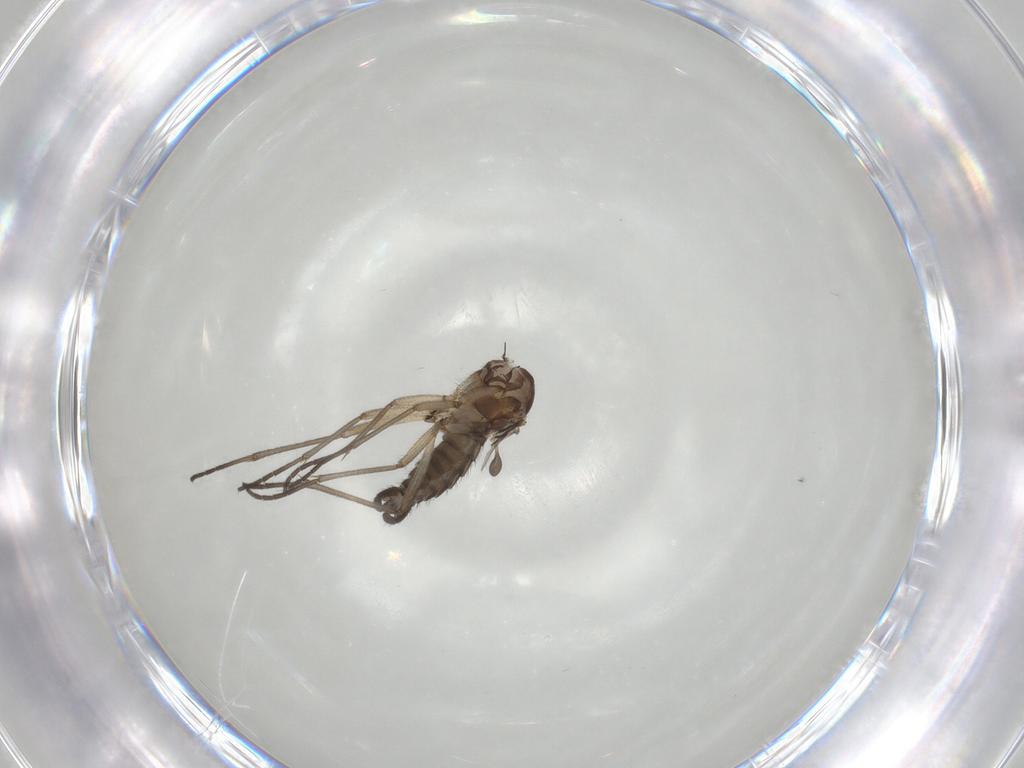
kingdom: Animalia
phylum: Arthropoda
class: Insecta
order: Diptera
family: Sciaridae
